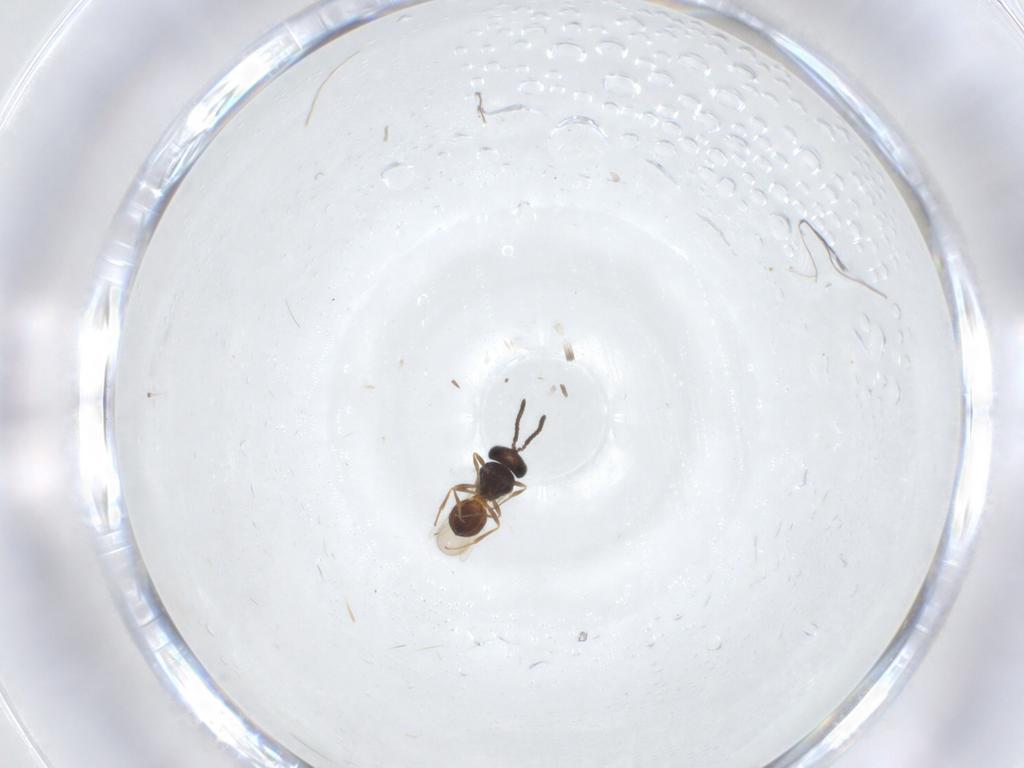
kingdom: Animalia
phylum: Arthropoda
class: Insecta
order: Hymenoptera
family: Scelionidae
